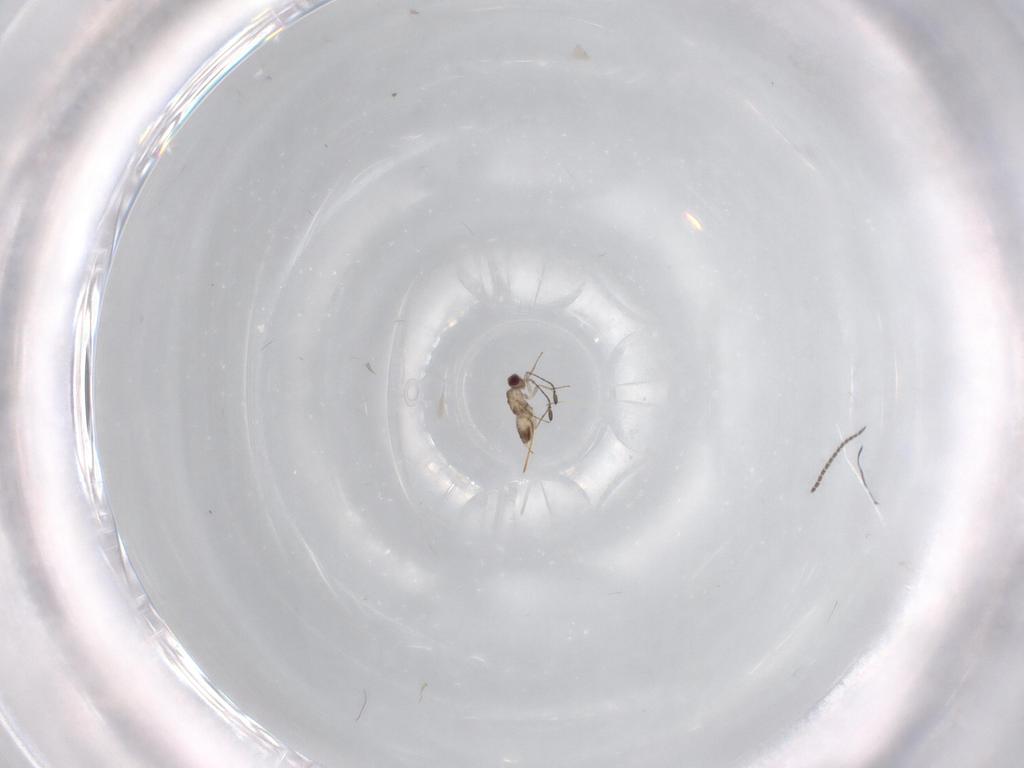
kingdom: Animalia
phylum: Arthropoda
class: Insecta
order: Hymenoptera
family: Mymaridae
